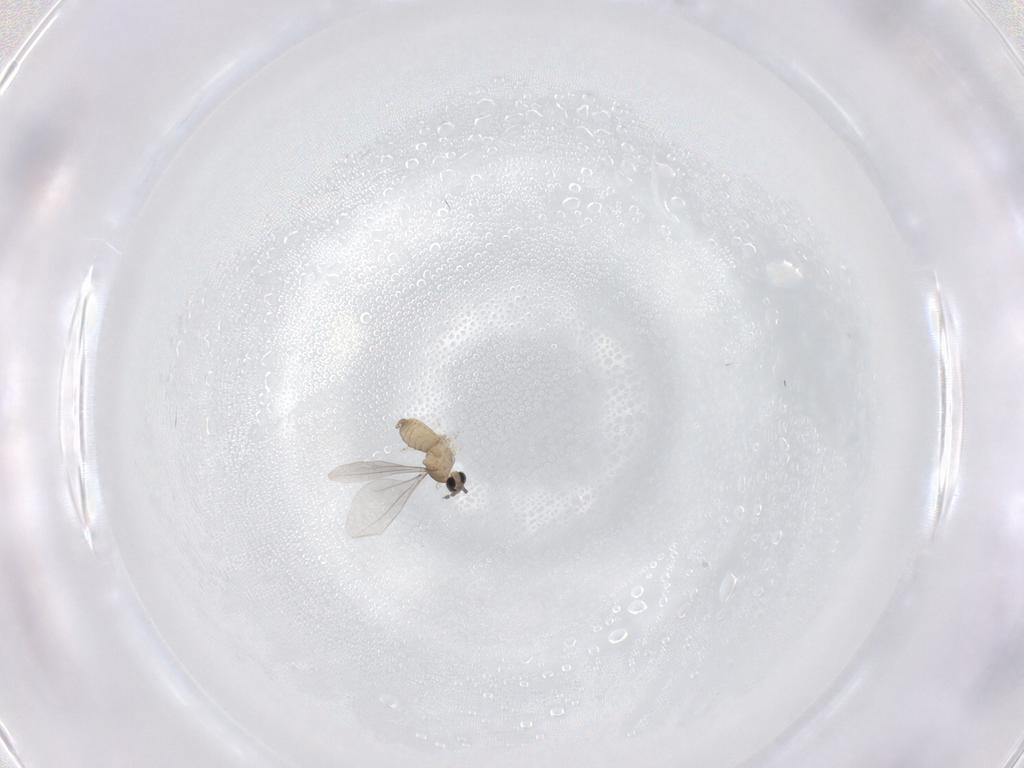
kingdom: Animalia
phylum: Arthropoda
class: Insecta
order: Diptera
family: Cecidomyiidae
